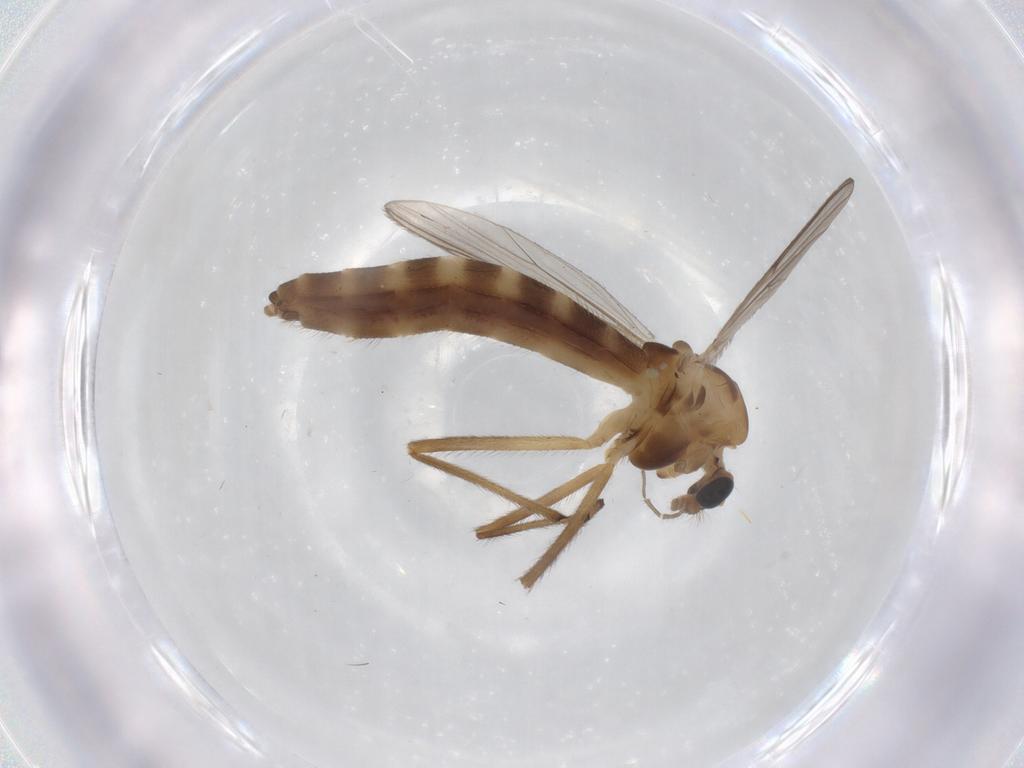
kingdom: Animalia
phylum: Arthropoda
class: Insecta
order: Diptera
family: Chironomidae
